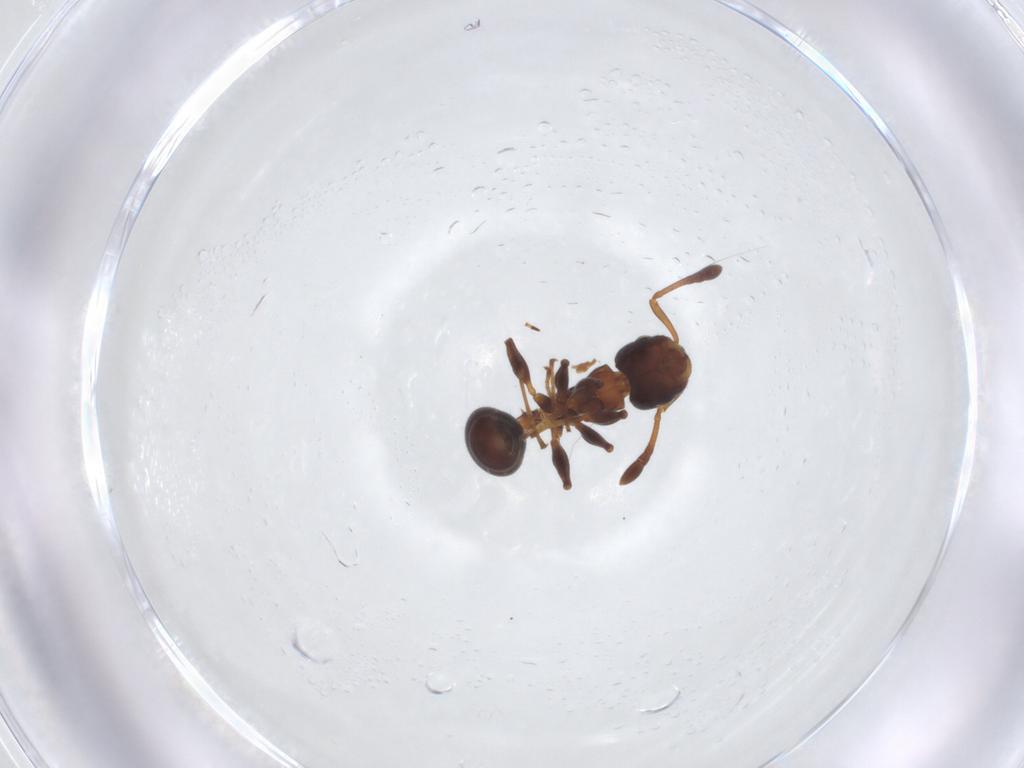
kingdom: Animalia
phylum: Arthropoda
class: Insecta
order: Hymenoptera
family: Formicidae
